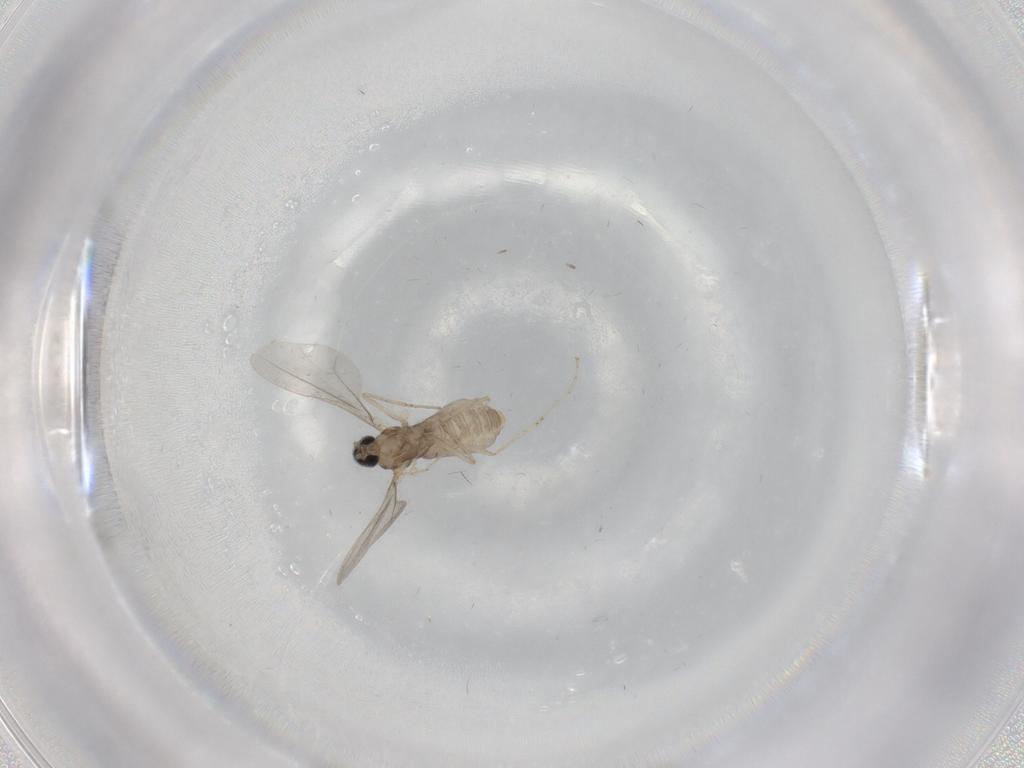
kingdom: Animalia
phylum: Arthropoda
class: Insecta
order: Diptera
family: Cecidomyiidae
